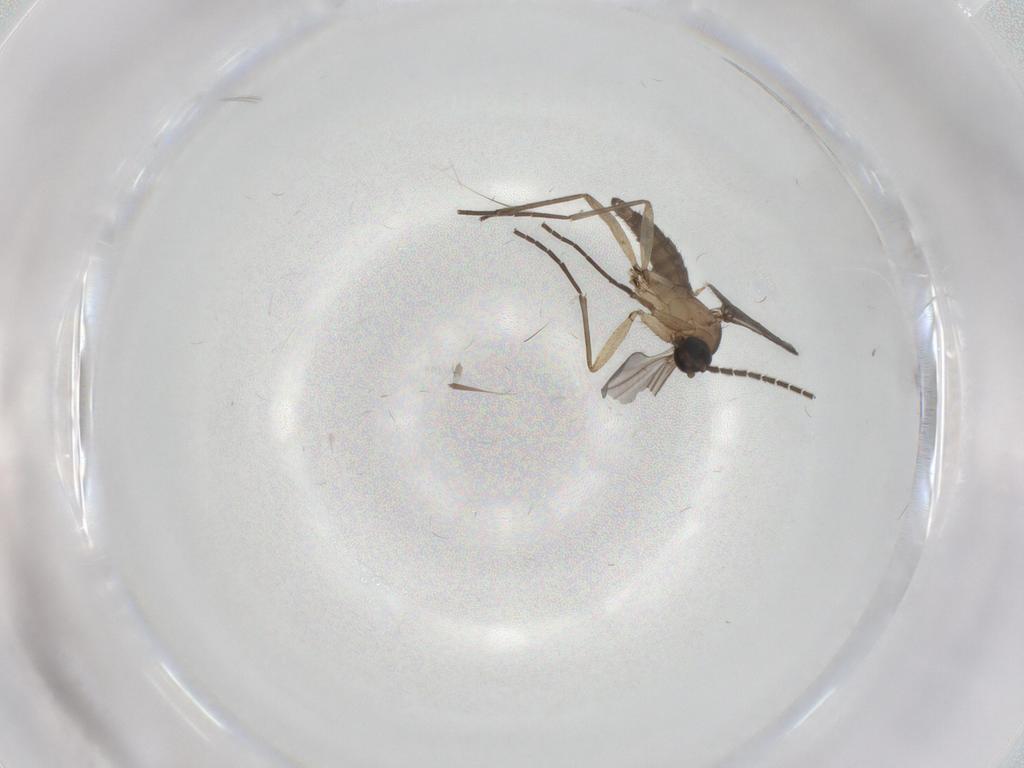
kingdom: Animalia
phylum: Arthropoda
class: Insecta
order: Diptera
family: Sciaridae
